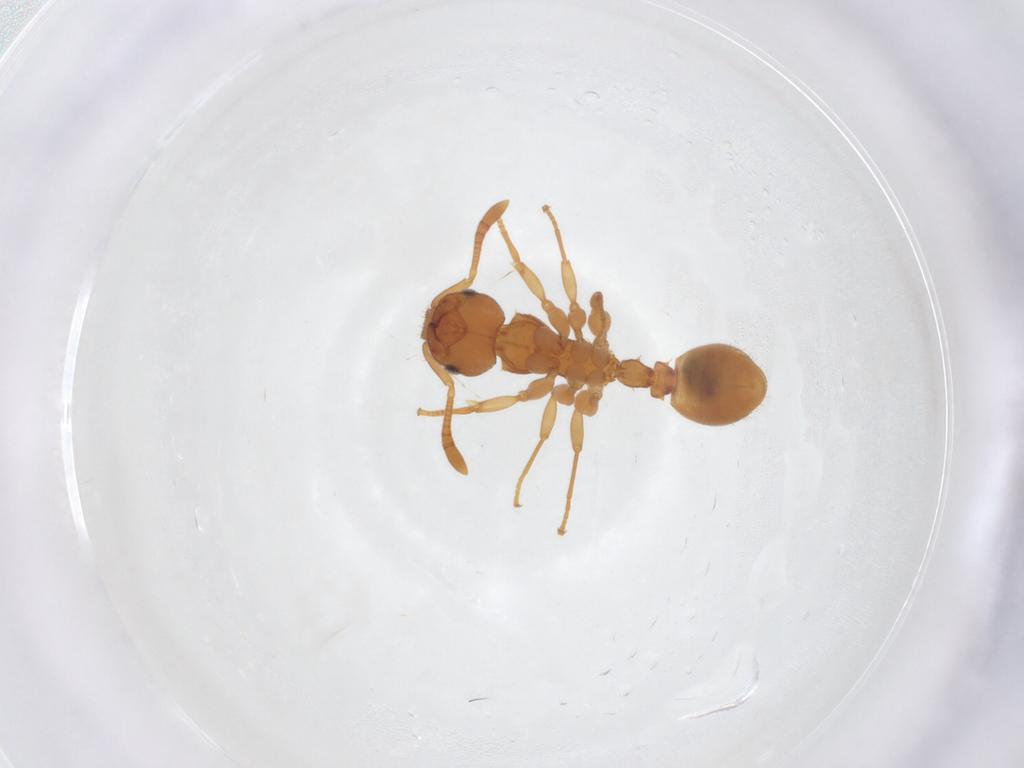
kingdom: Animalia
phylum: Arthropoda
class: Insecta
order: Hymenoptera
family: Formicidae
